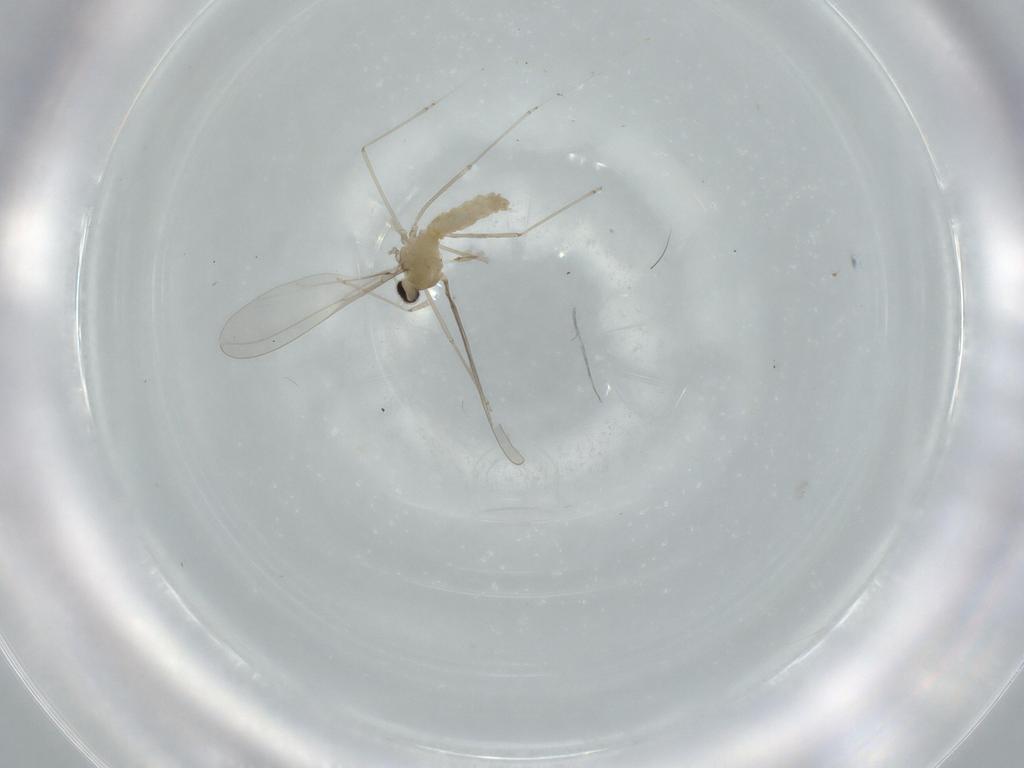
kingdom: Animalia
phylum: Arthropoda
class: Insecta
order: Diptera
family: Cecidomyiidae
